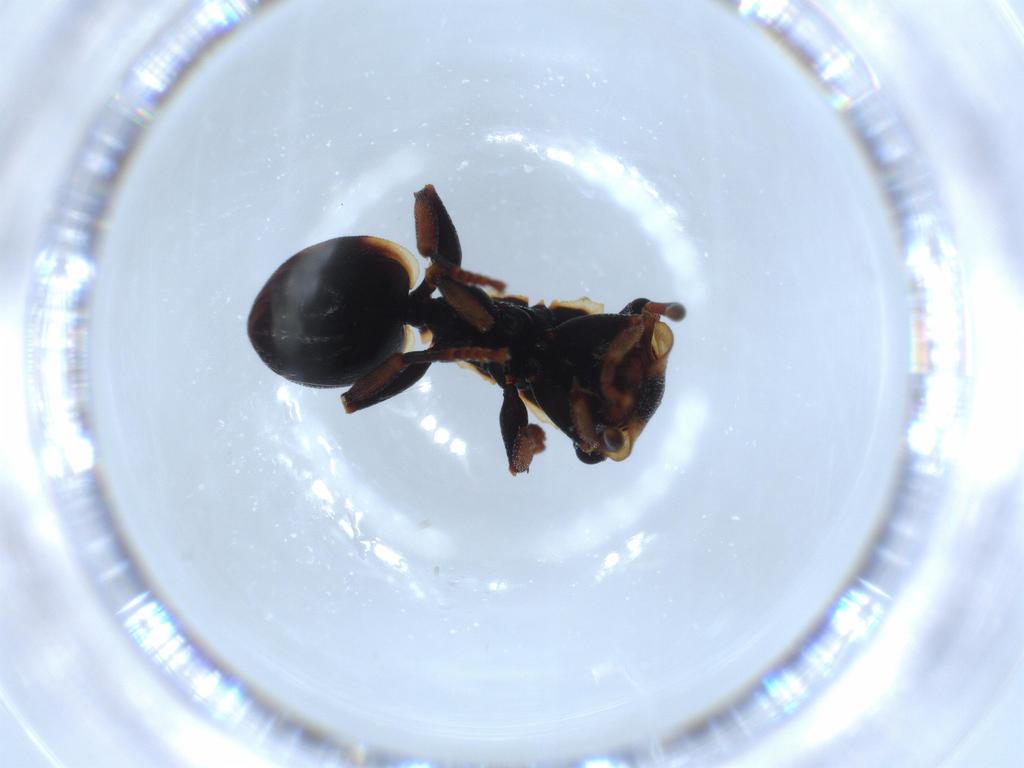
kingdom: Animalia
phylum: Arthropoda
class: Insecta
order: Hymenoptera
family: Formicidae
